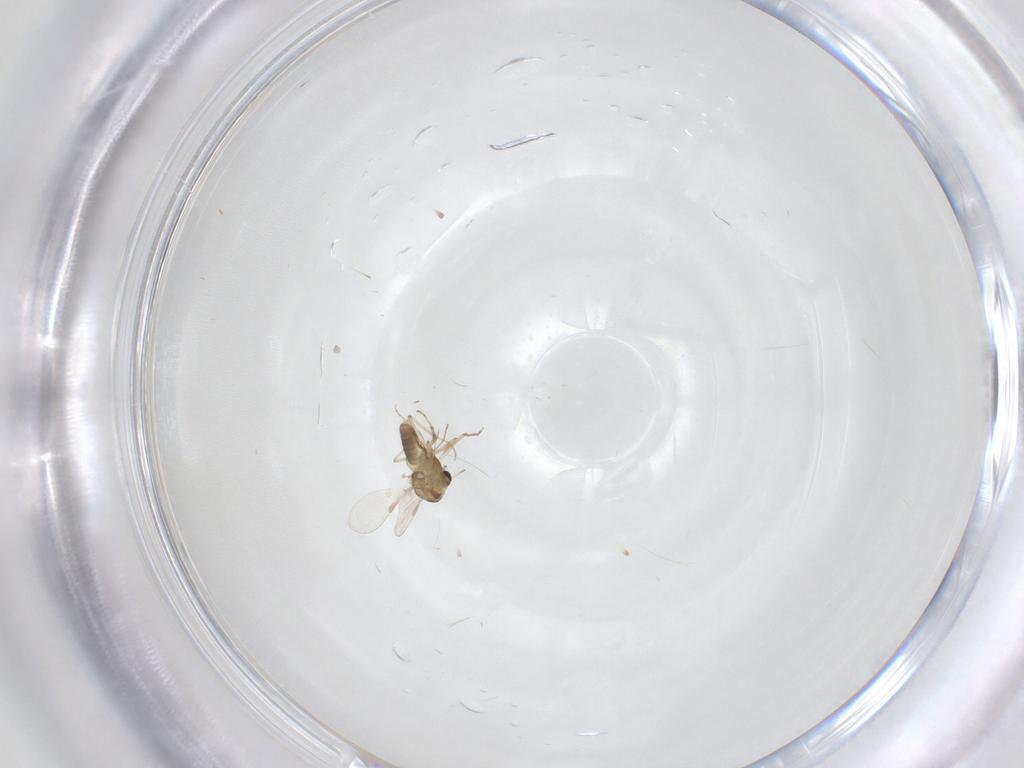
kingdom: Animalia
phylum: Arthropoda
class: Insecta
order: Diptera
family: Chironomidae
